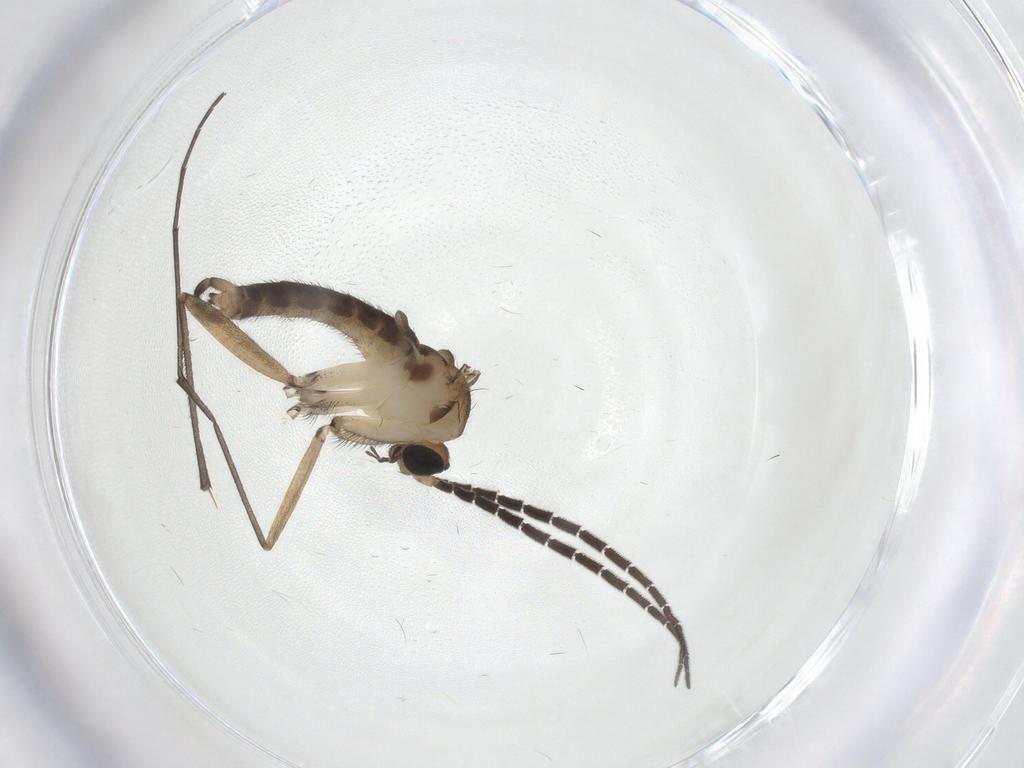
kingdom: Animalia
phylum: Arthropoda
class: Insecta
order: Diptera
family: Sciaridae
